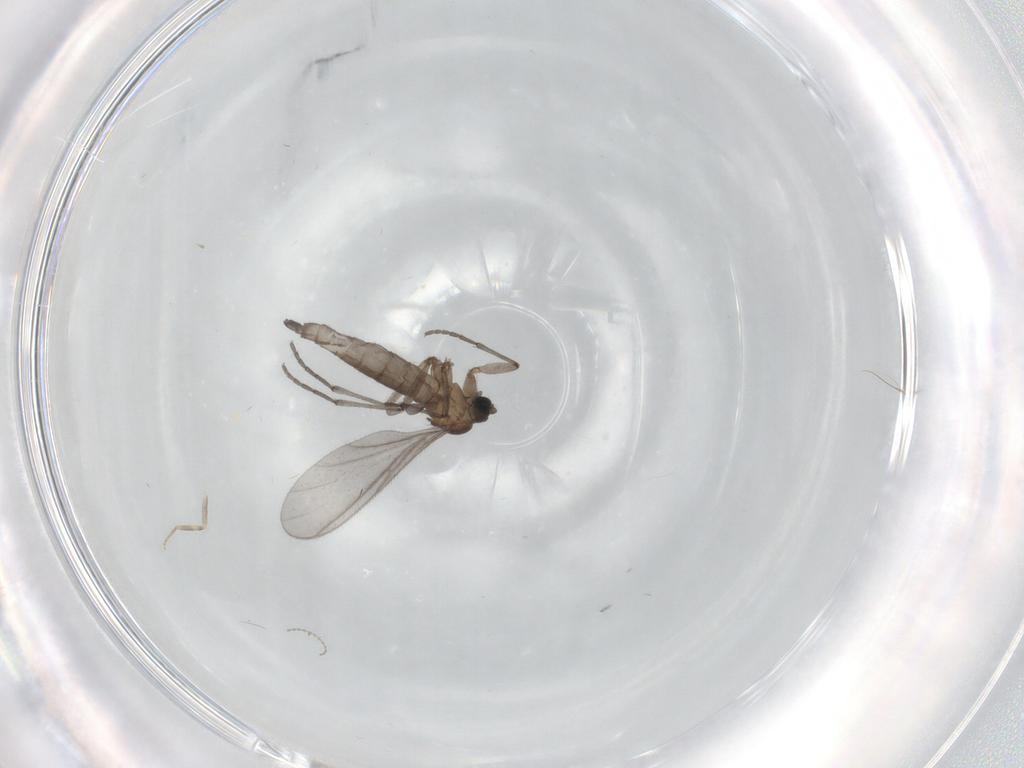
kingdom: Animalia
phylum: Arthropoda
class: Insecta
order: Diptera
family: Sciaridae
